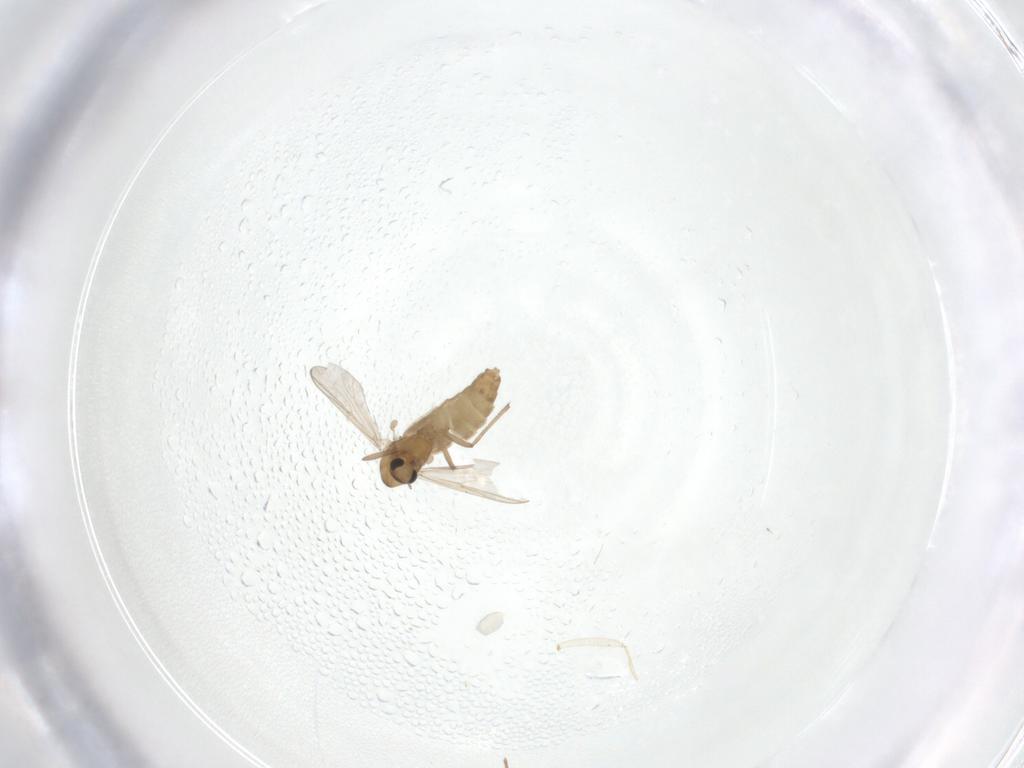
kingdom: Animalia
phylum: Arthropoda
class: Insecta
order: Diptera
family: Chironomidae
